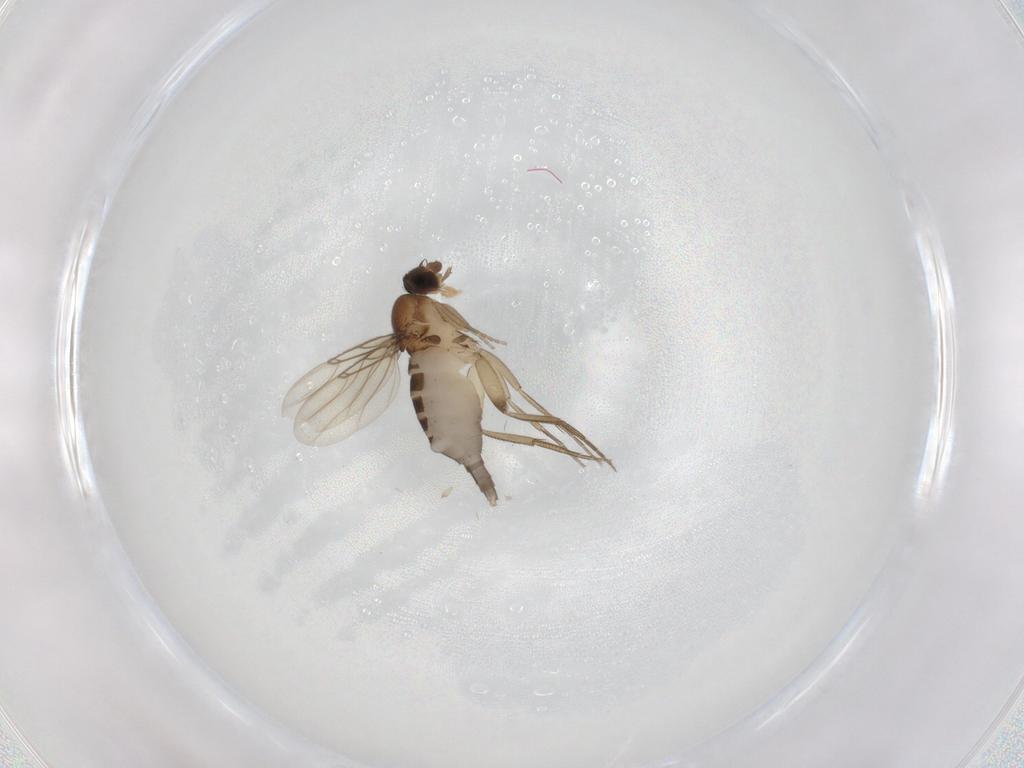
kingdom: Animalia
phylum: Arthropoda
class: Insecta
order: Diptera
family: Phoridae
